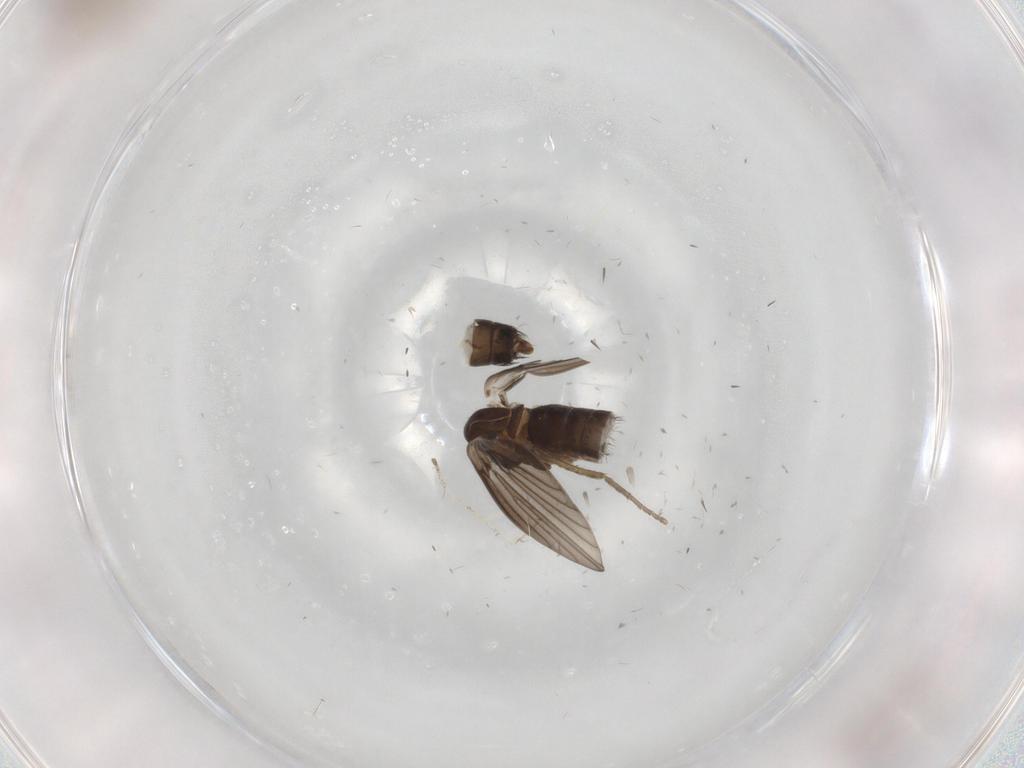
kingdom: Animalia
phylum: Arthropoda
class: Insecta
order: Diptera
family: Cecidomyiidae
